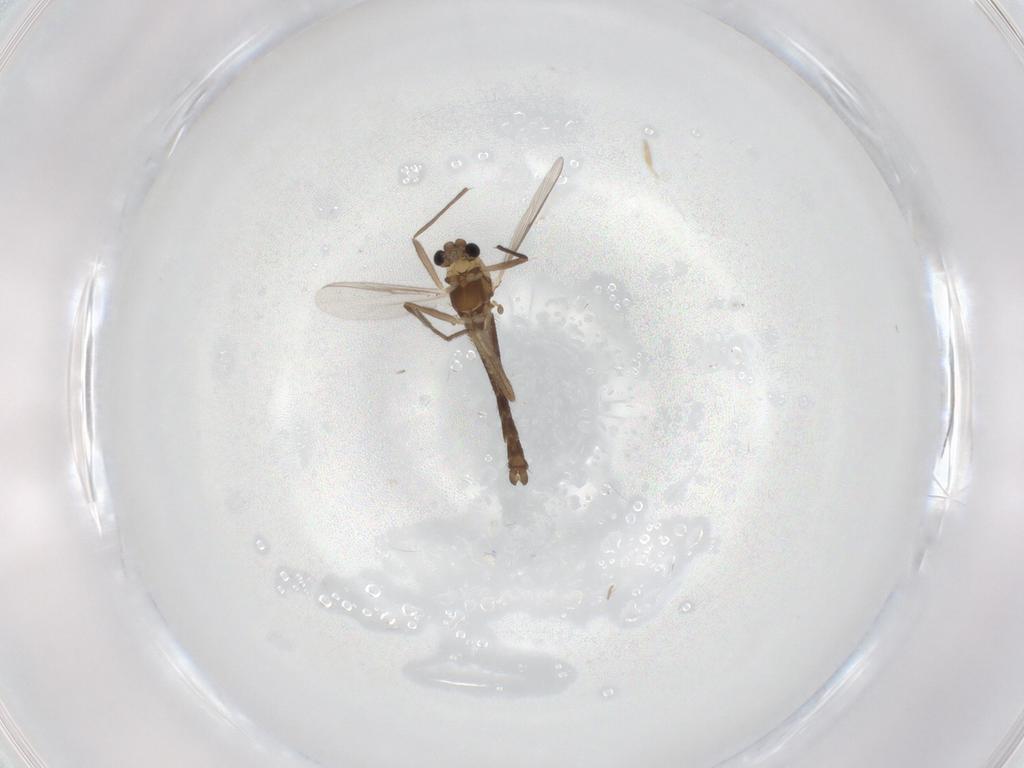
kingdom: Animalia
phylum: Arthropoda
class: Insecta
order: Diptera
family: Chironomidae
